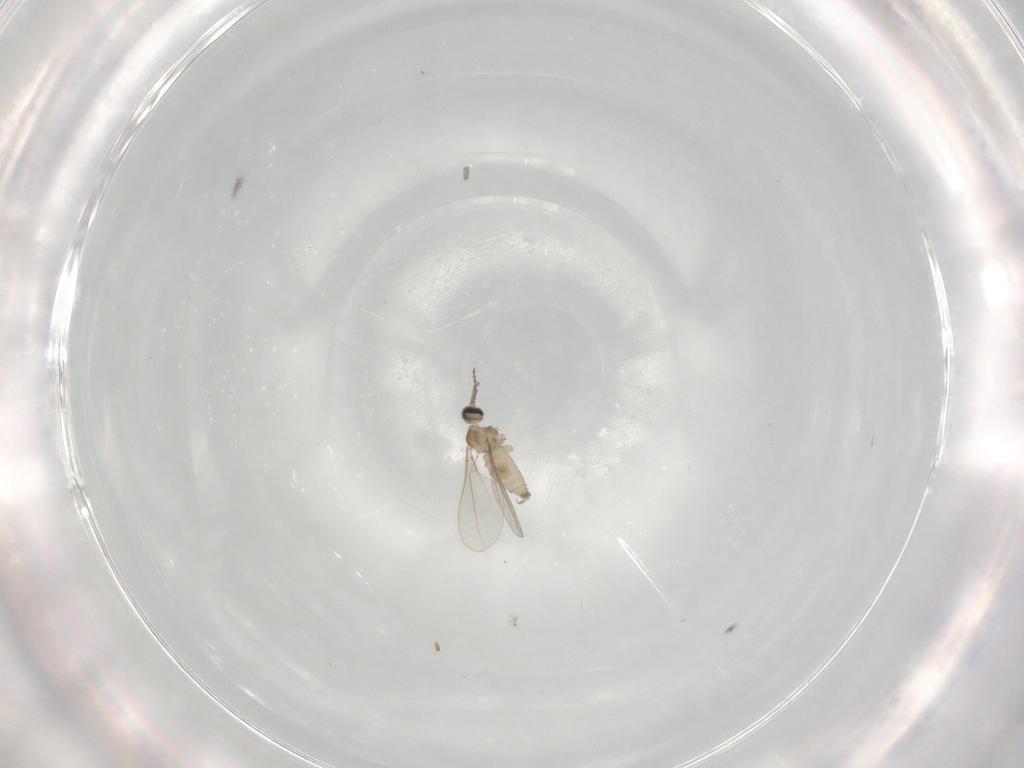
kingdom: Animalia
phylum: Arthropoda
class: Insecta
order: Diptera
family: Cecidomyiidae
